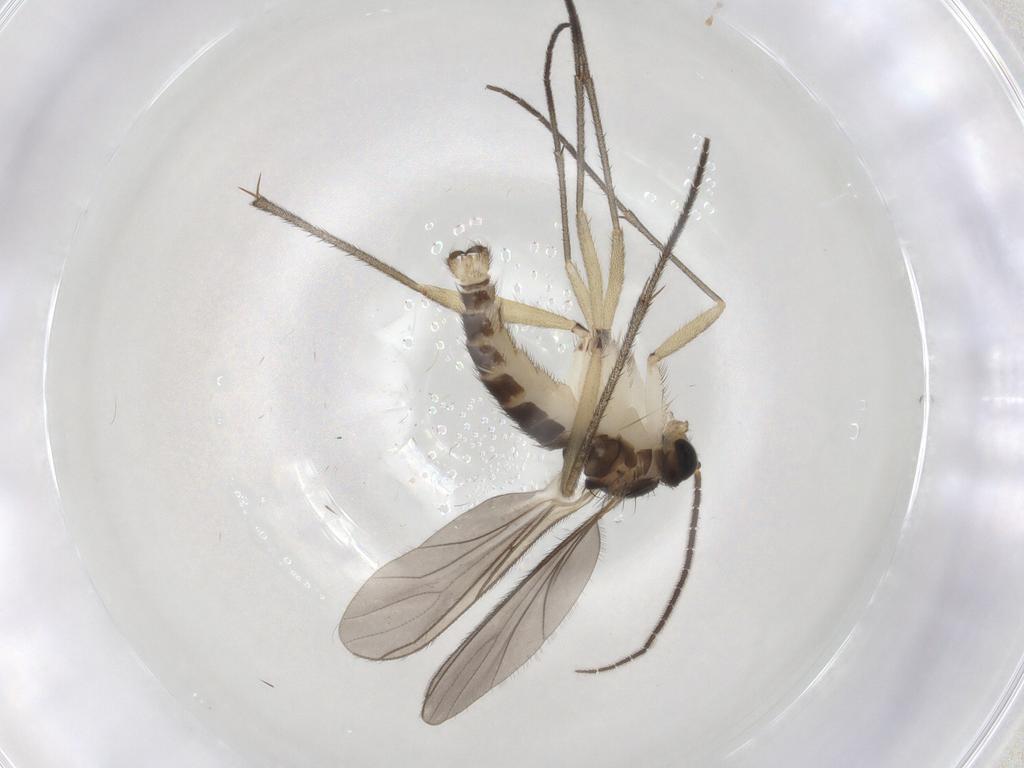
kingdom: Animalia
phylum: Arthropoda
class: Insecta
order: Diptera
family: Sciaridae
